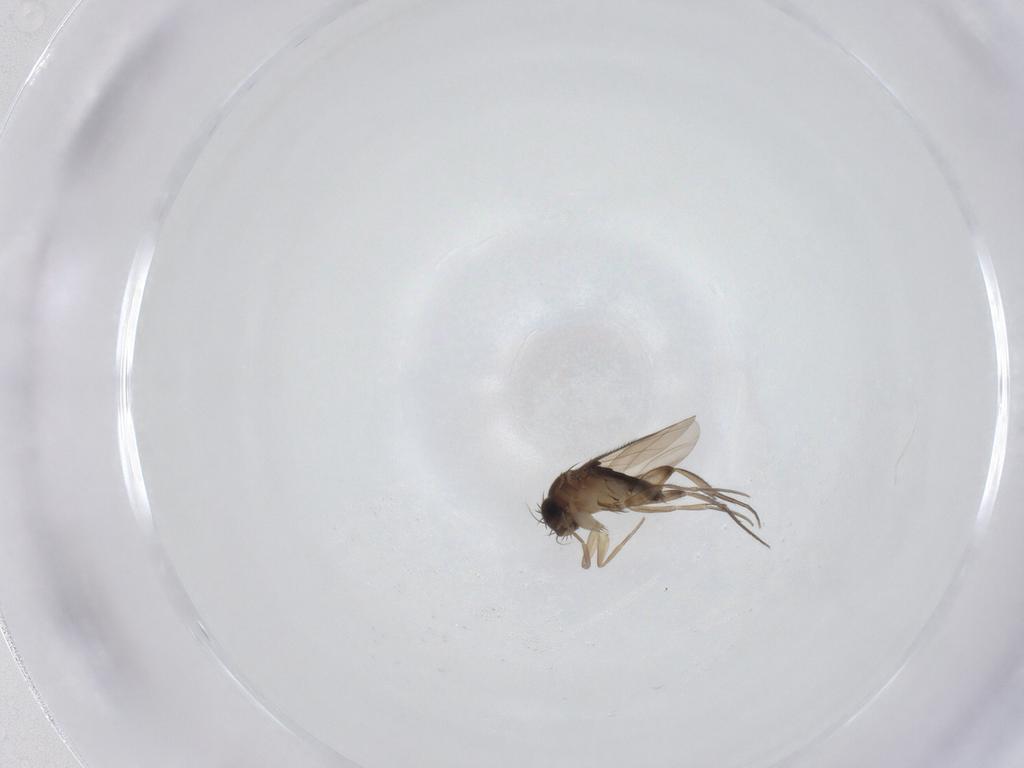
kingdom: Animalia
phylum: Arthropoda
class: Insecta
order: Diptera
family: Phoridae
